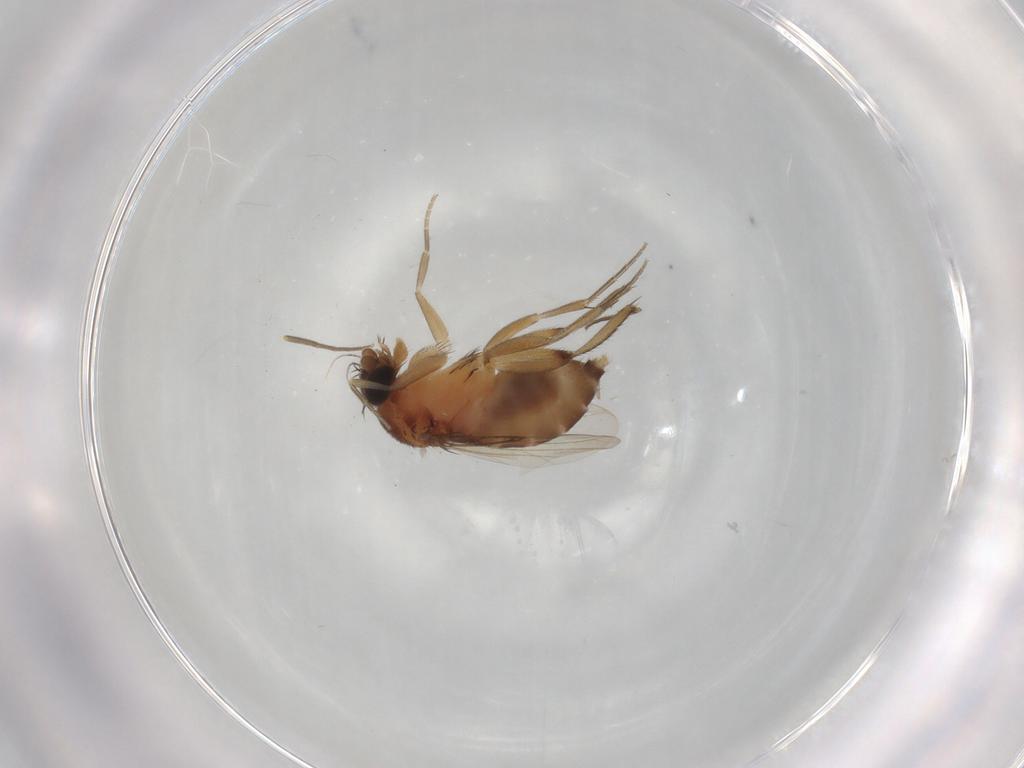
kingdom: Animalia
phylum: Arthropoda
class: Insecta
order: Diptera
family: Phoridae
